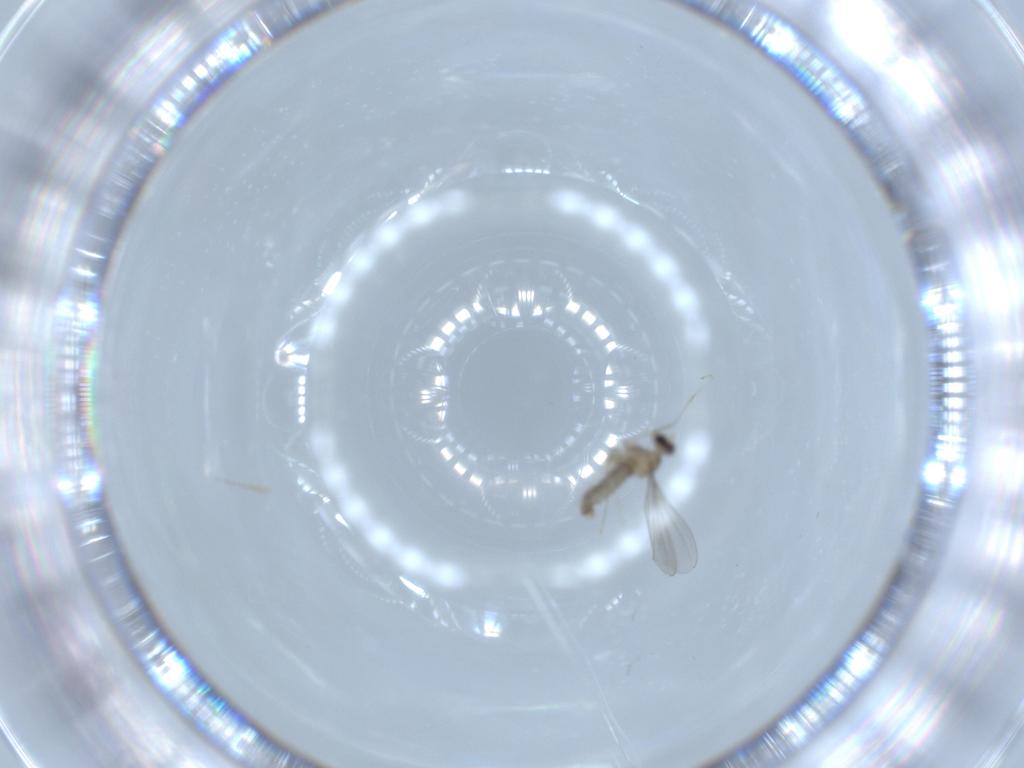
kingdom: Animalia
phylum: Arthropoda
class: Insecta
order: Diptera
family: Cecidomyiidae
